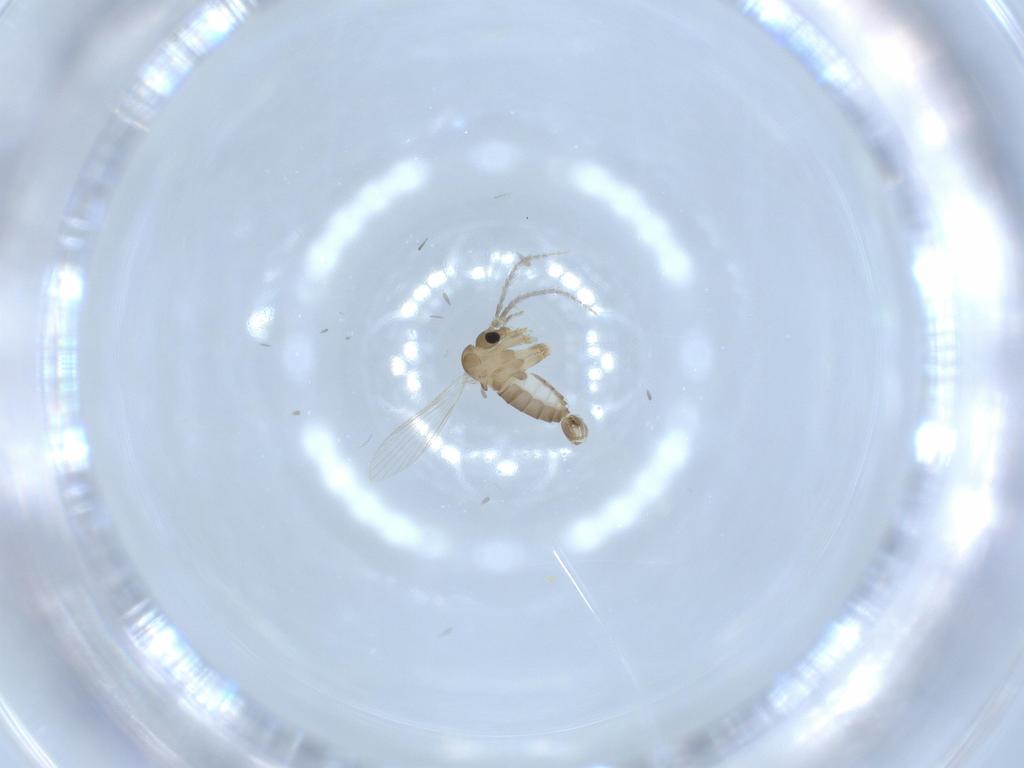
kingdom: Animalia
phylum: Arthropoda
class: Insecta
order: Diptera
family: Psychodidae
